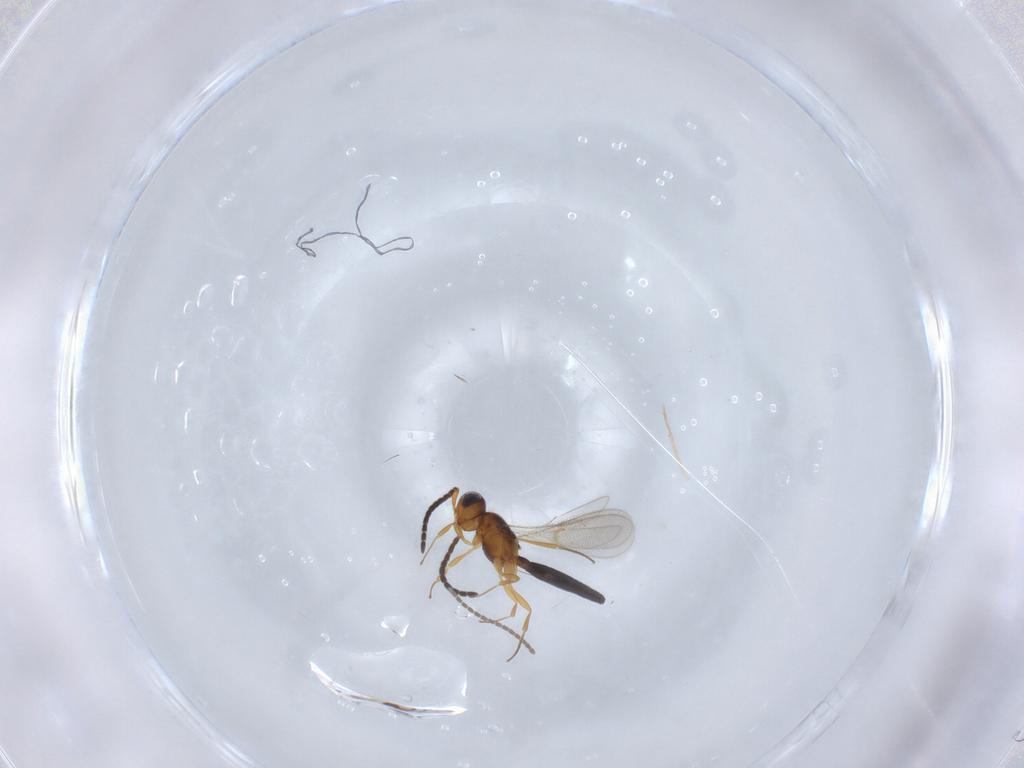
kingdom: Animalia
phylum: Arthropoda
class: Insecta
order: Hymenoptera
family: Scelionidae
